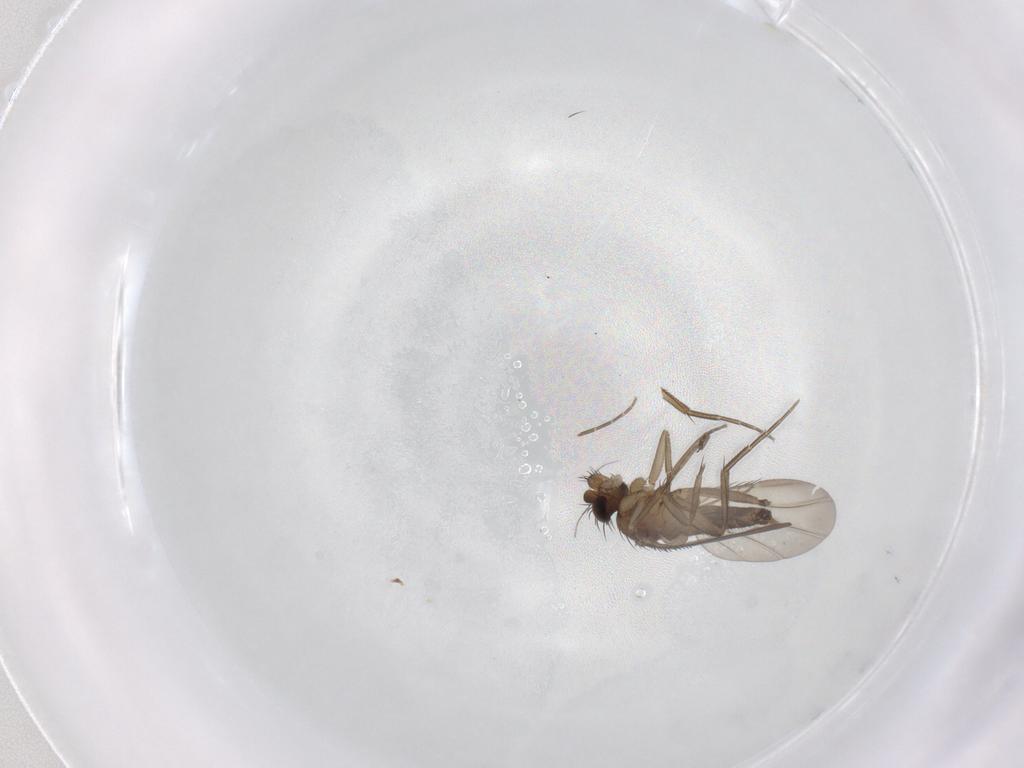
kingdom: Animalia
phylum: Arthropoda
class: Insecta
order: Diptera
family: Phoridae
